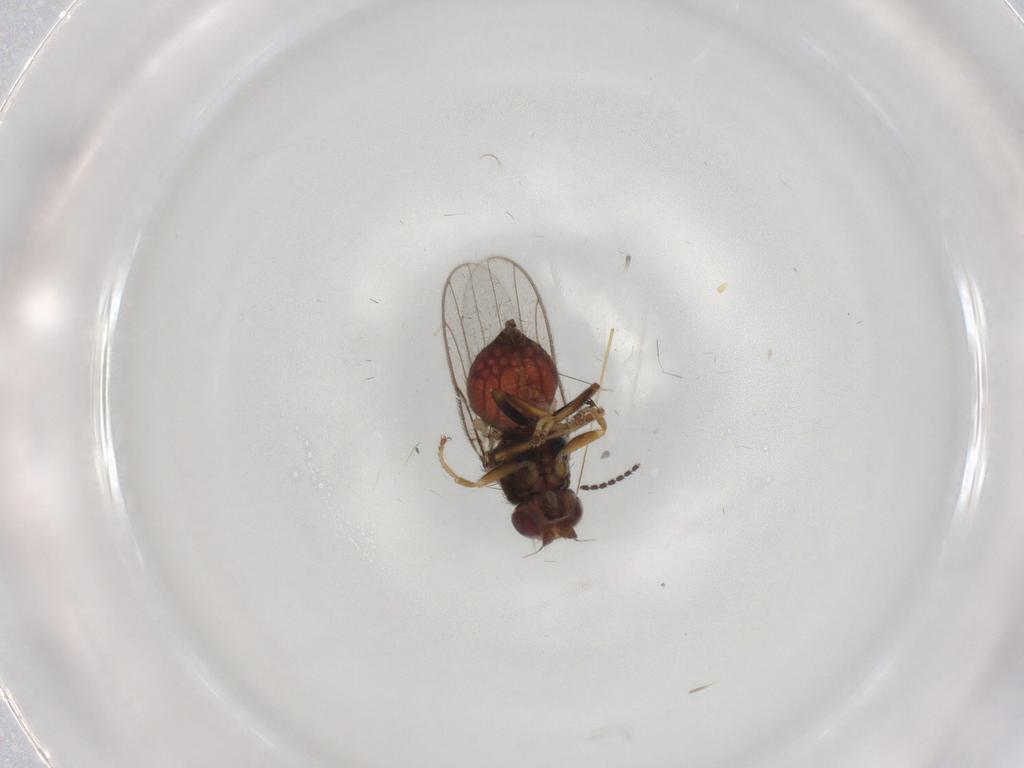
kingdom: Animalia
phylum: Arthropoda
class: Insecta
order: Diptera
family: Chloropidae
